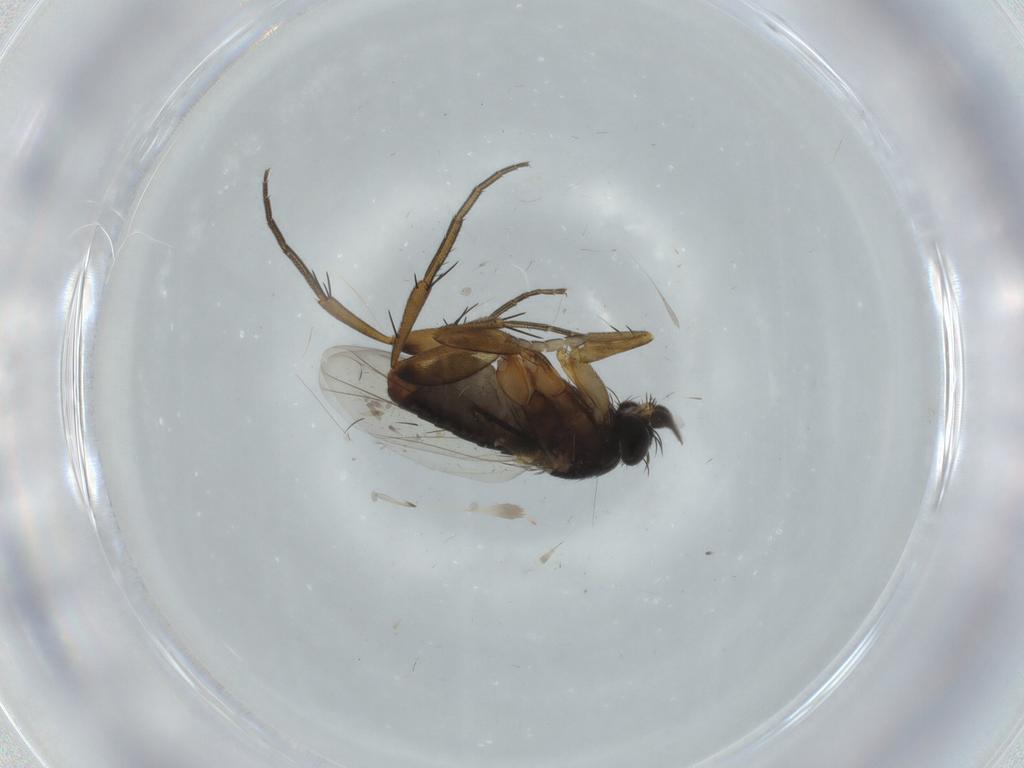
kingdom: Animalia
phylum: Arthropoda
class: Insecta
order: Diptera
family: Phoridae
